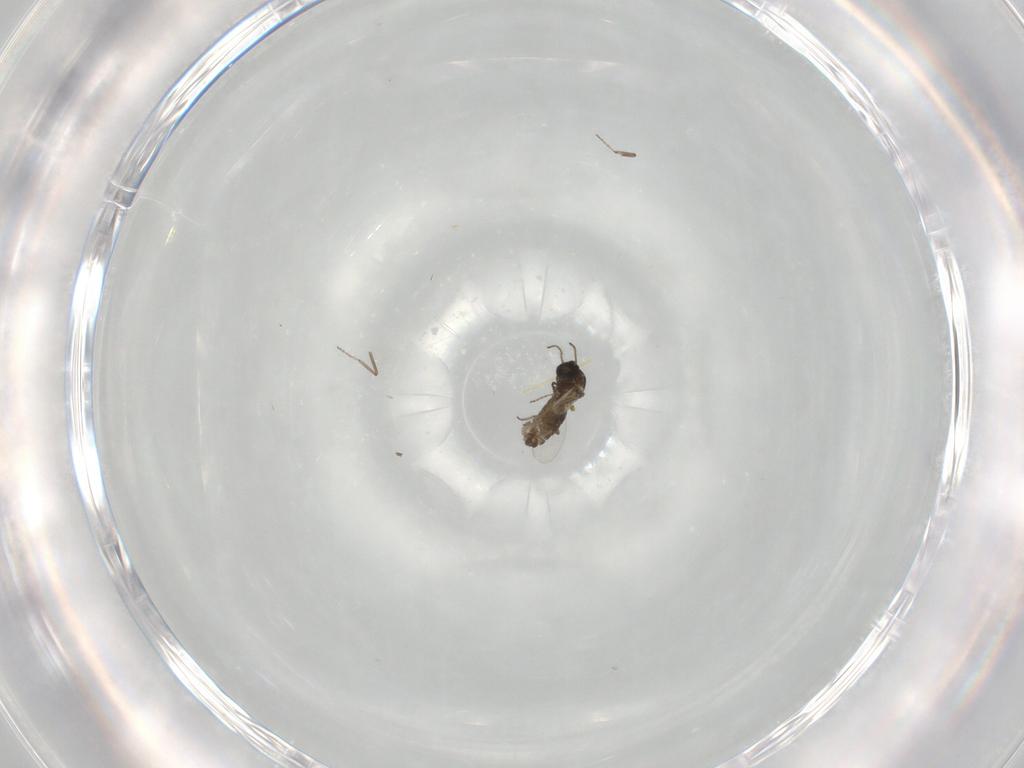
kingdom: Animalia
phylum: Arthropoda
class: Insecta
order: Diptera
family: Ceratopogonidae
